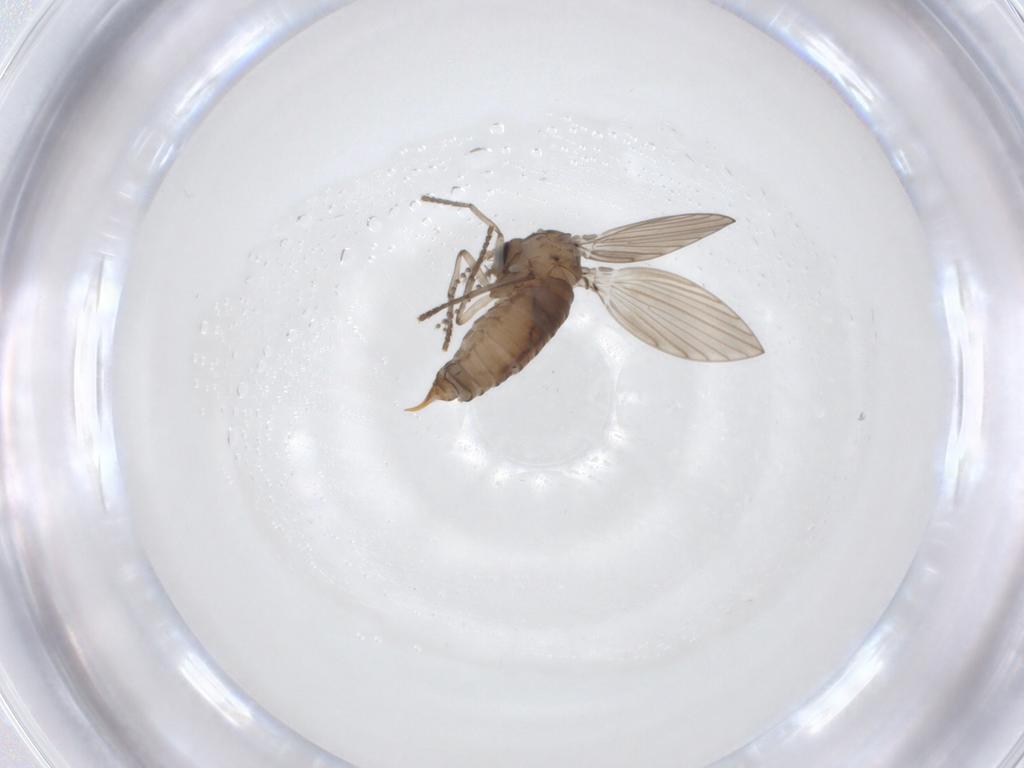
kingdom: Animalia
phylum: Arthropoda
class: Insecta
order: Diptera
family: Psychodidae
